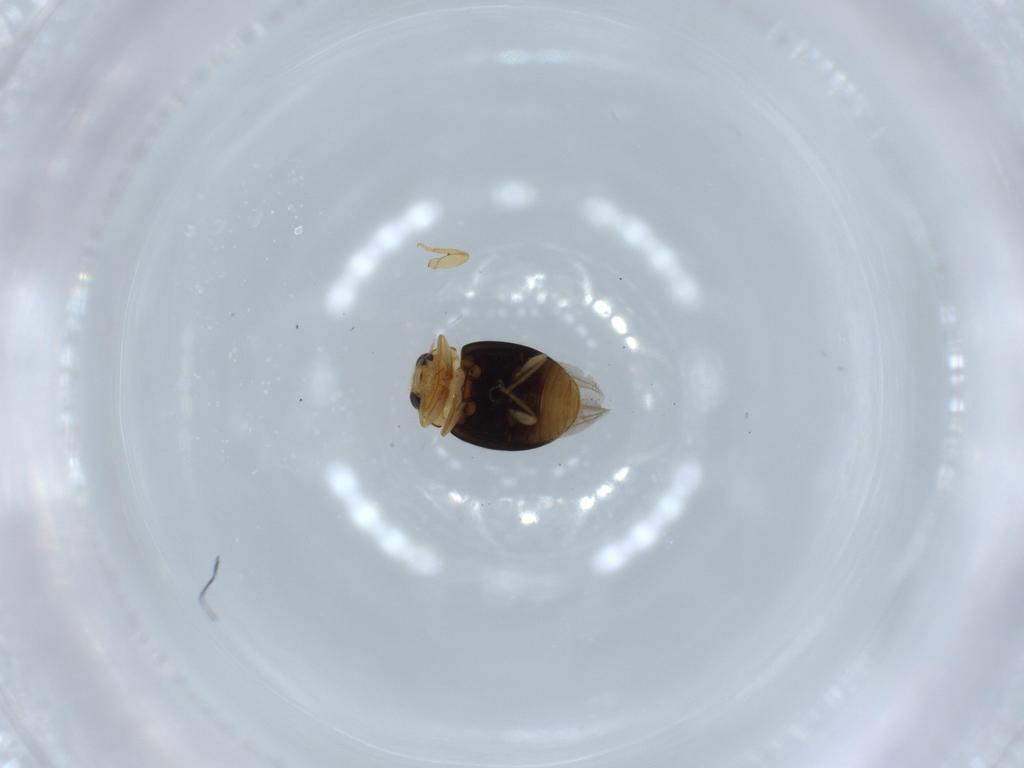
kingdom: Animalia
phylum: Arthropoda
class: Insecta
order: Coleoptera
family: Coccinellidae
